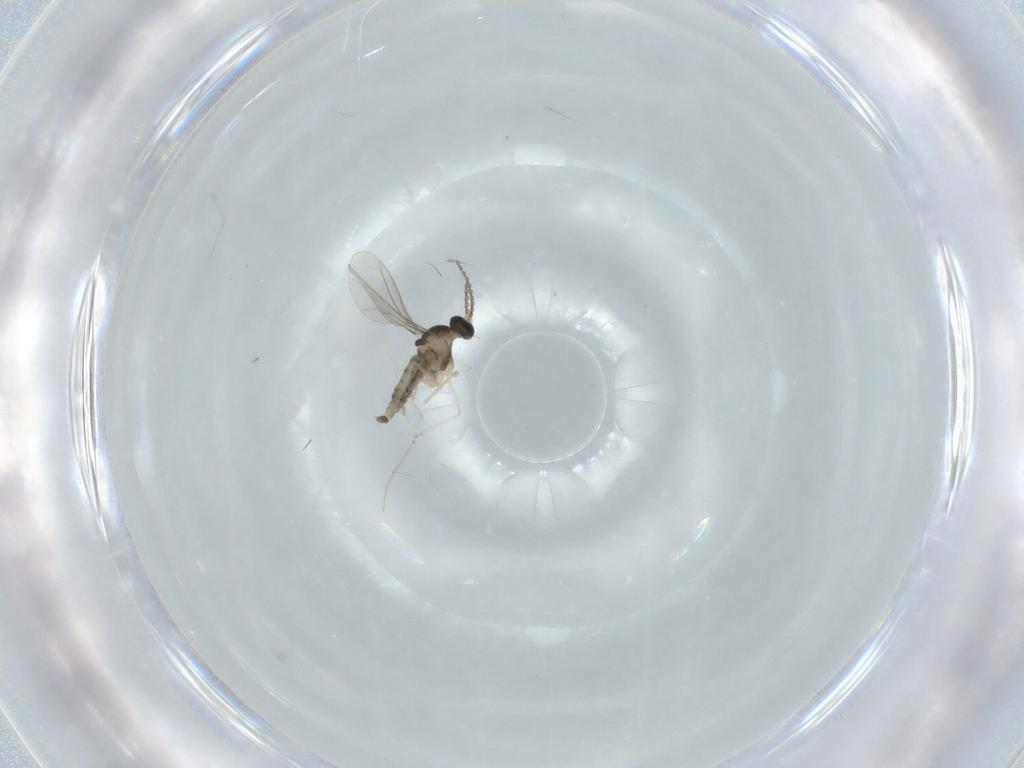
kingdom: Animalia
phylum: Arthropoda
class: Insecta
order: Diptera
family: Cecidomyiidae
